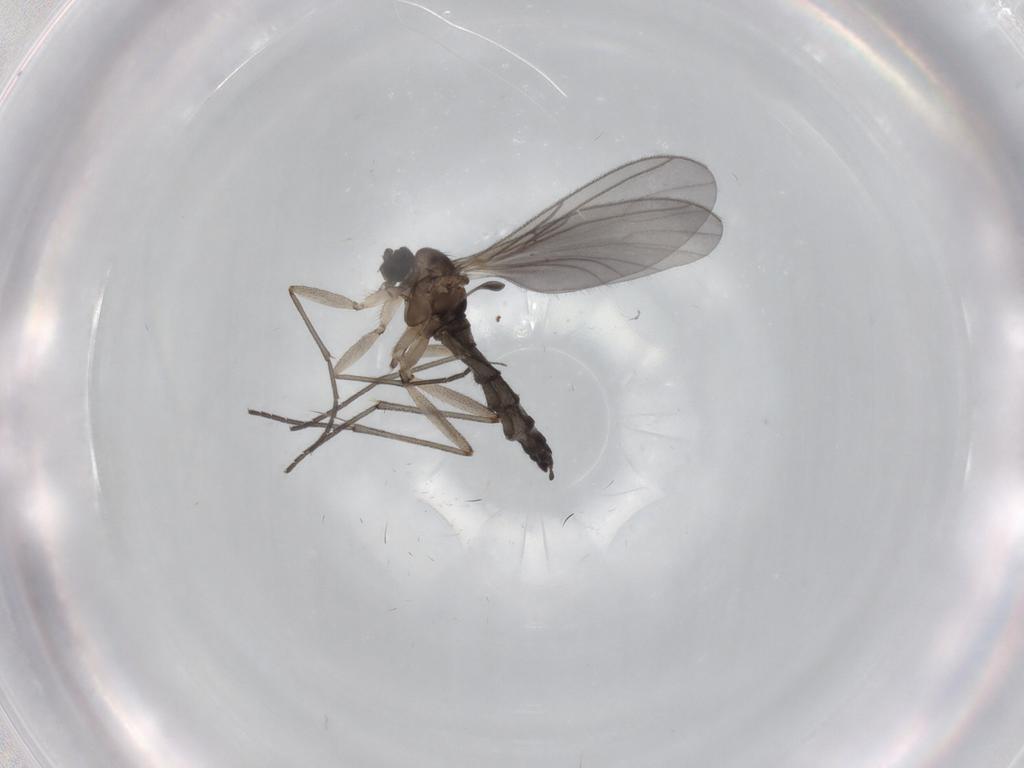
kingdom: Animalia
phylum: Arthropoda
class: Insecta
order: Diptera
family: Sciaridae
